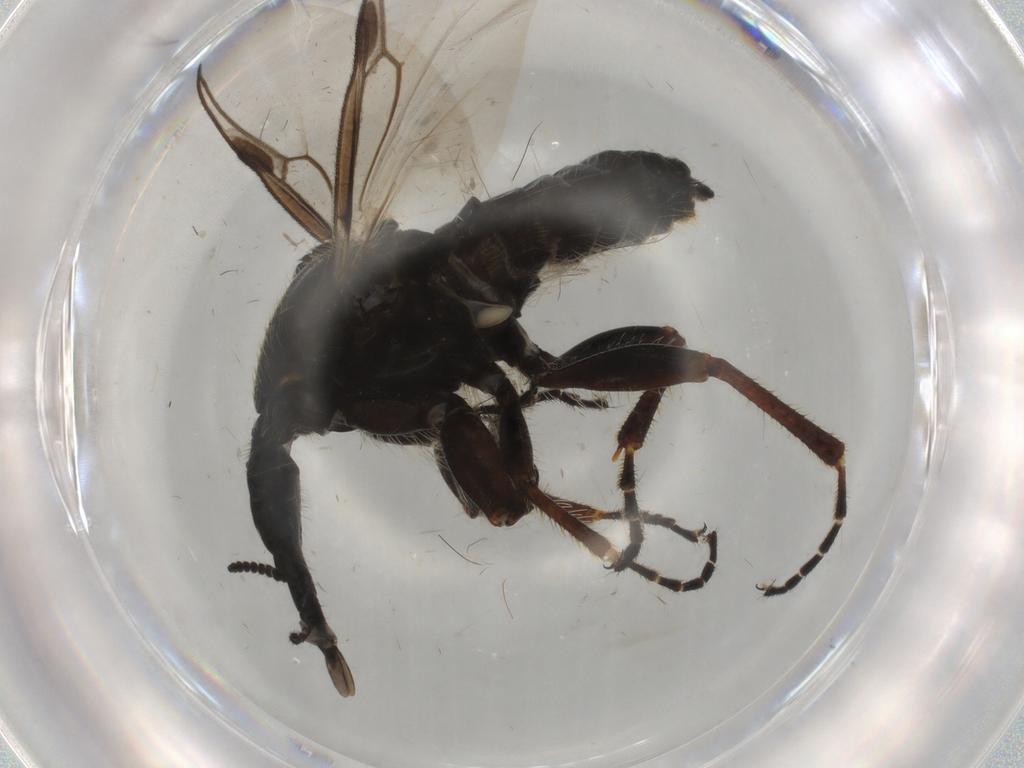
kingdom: Animalia
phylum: Arthropoda
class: Insecta
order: Diptera
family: Bibionidae
